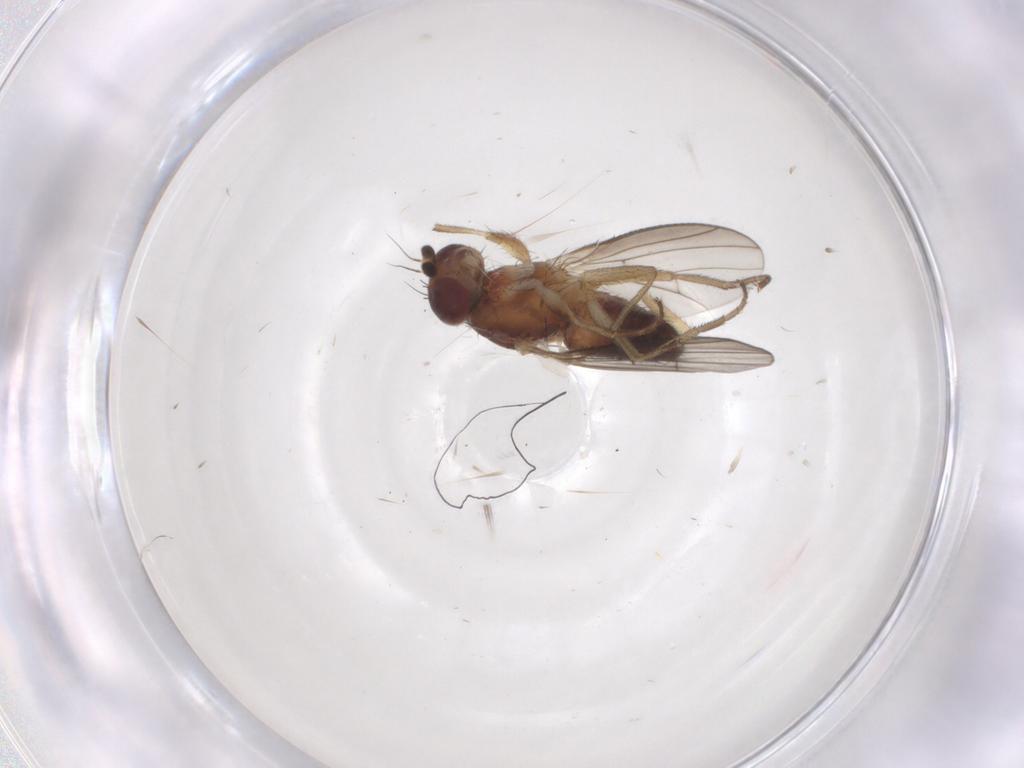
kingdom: Animalia
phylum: Arthropoda
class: Insecta
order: Diptera
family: Heleomyzidae
